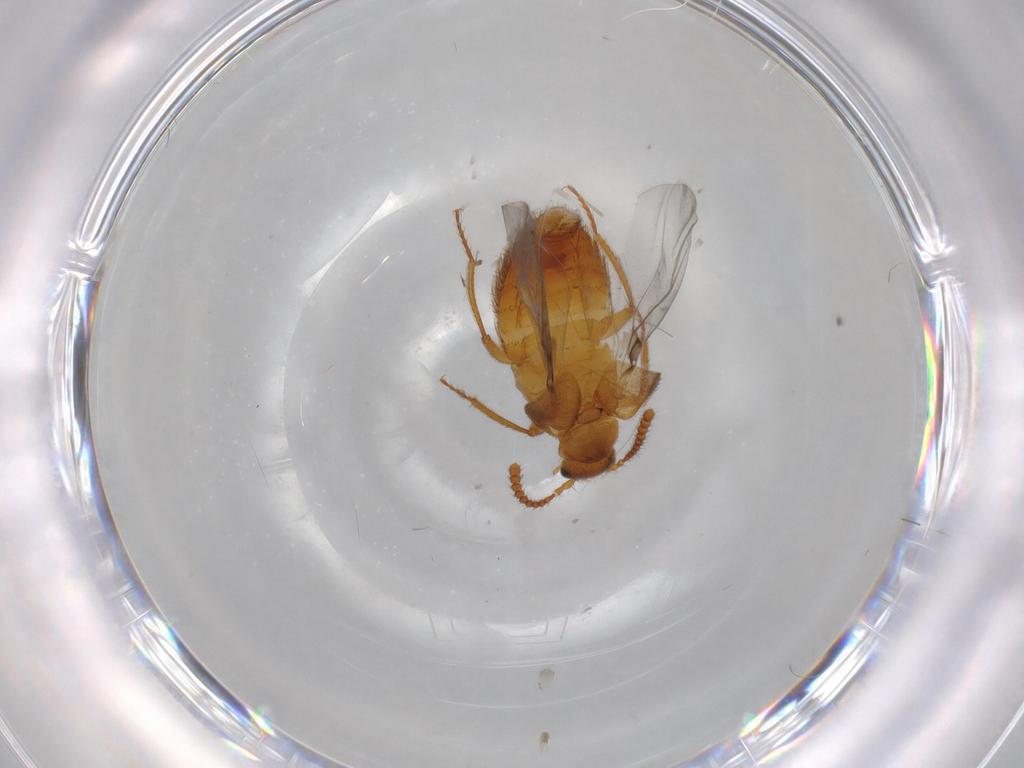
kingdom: Animalia
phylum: Arthropoda
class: Insecta
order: Coleoptera
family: Staphylinidae
